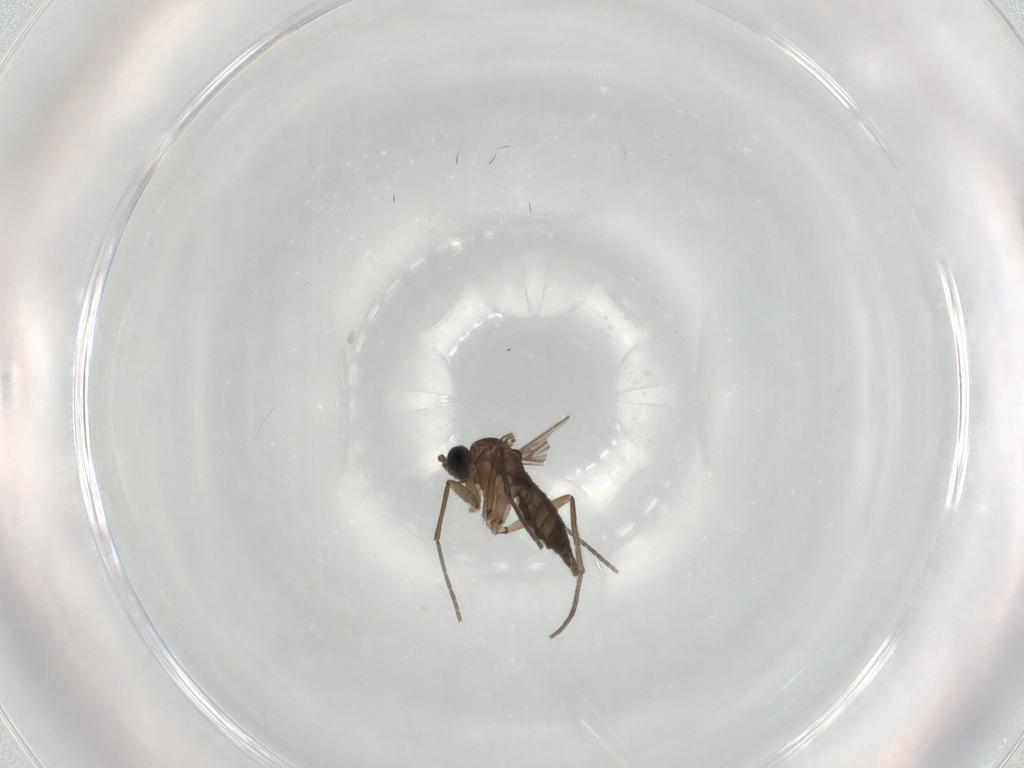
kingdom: Animalia
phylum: Arthropoda
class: Insecta
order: Diptera
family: Sciaridae
